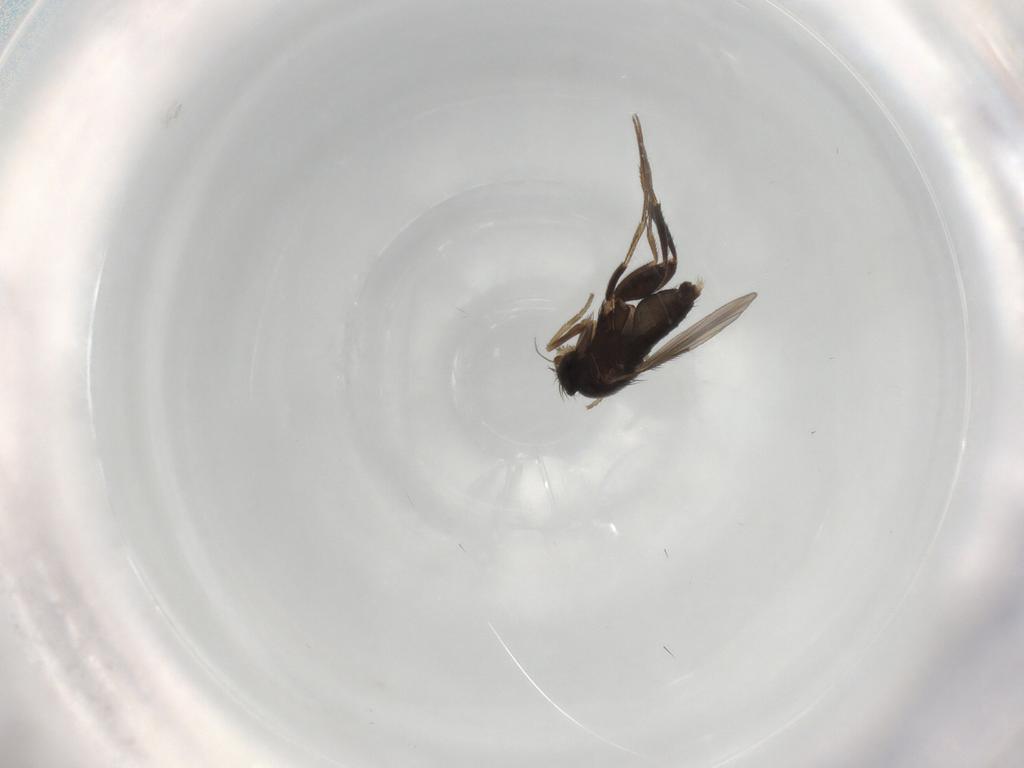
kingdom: Animalia
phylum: Arthropoda
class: Insecta
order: Diptera
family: Phoridae
